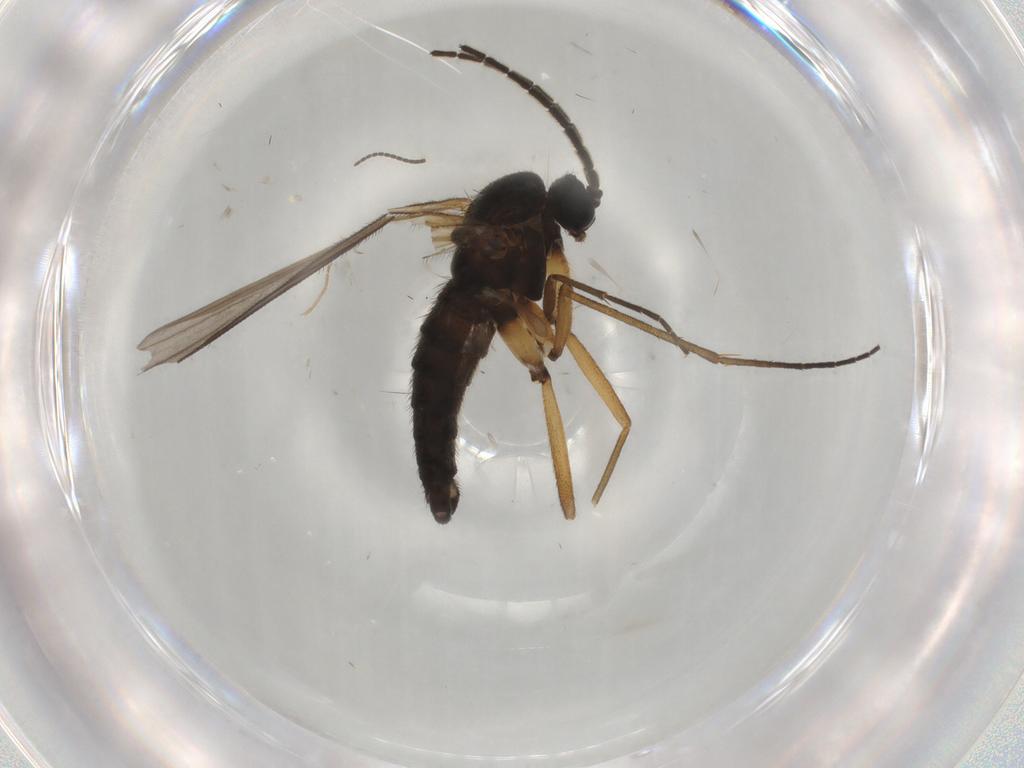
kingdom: Animalia
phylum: Arthropoda
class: Insecta
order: Diptera
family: Sciaridae
